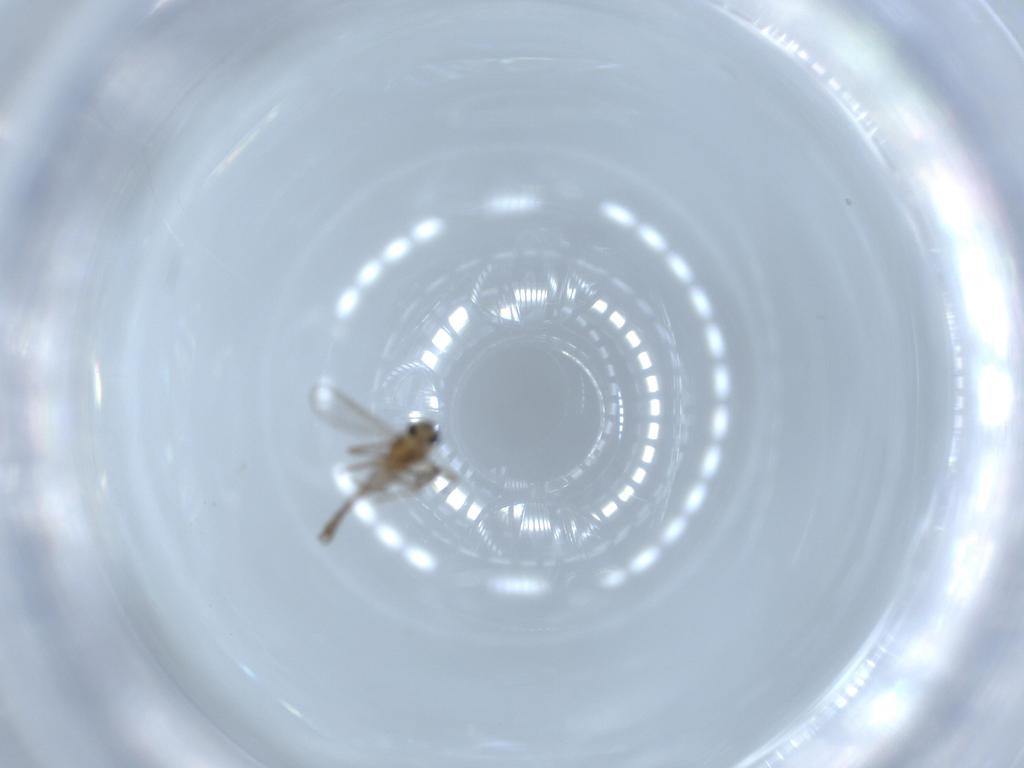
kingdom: Animalia
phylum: Arthropoda
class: Insecta
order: Diptera
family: Chironomidae
